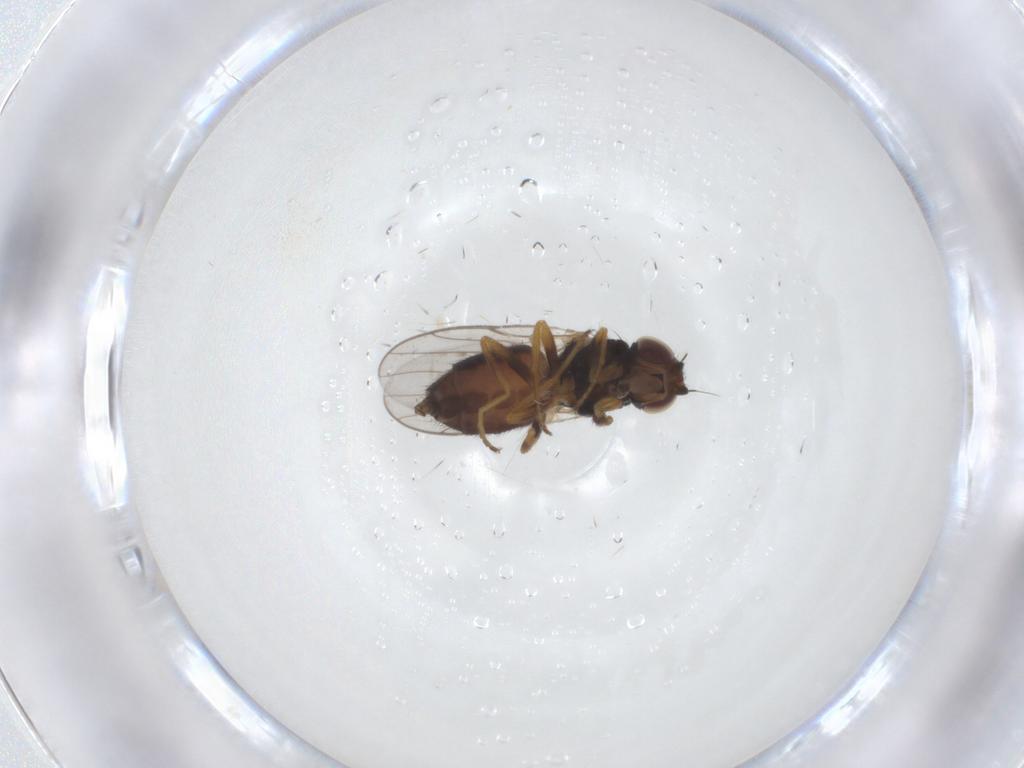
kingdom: Animalia
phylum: Arthropoda
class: Insecta
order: Diptera
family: Chloropidae
